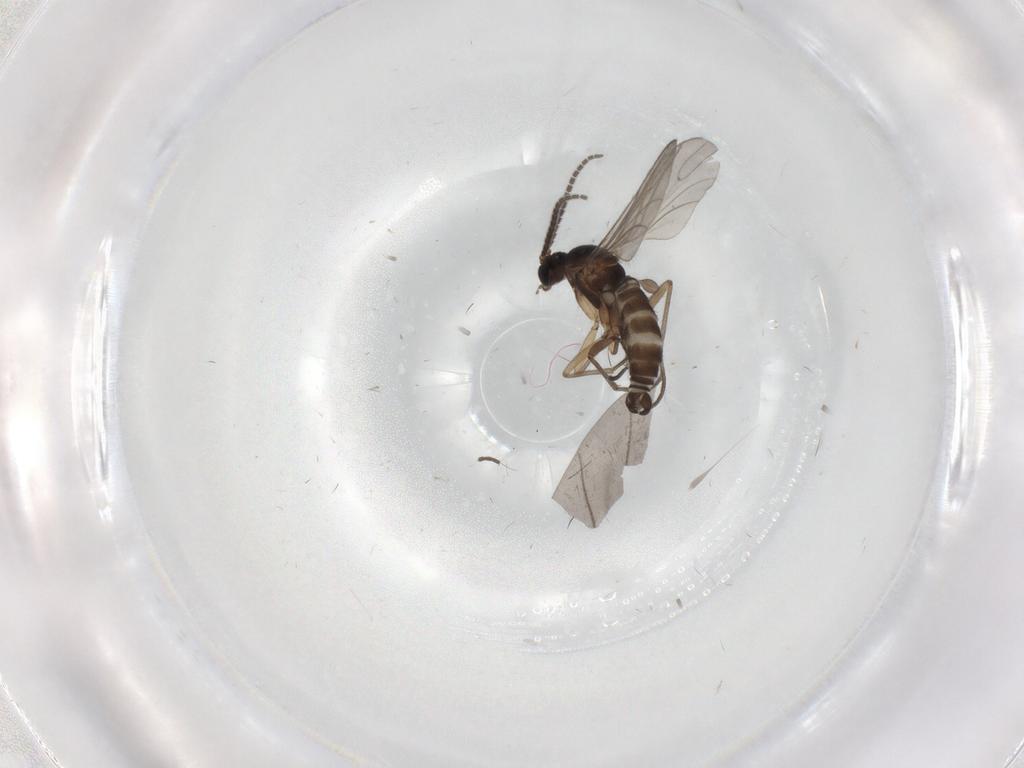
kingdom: Animalia
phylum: Arthropoda
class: Insecta
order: Diptera
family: Sciaridae
